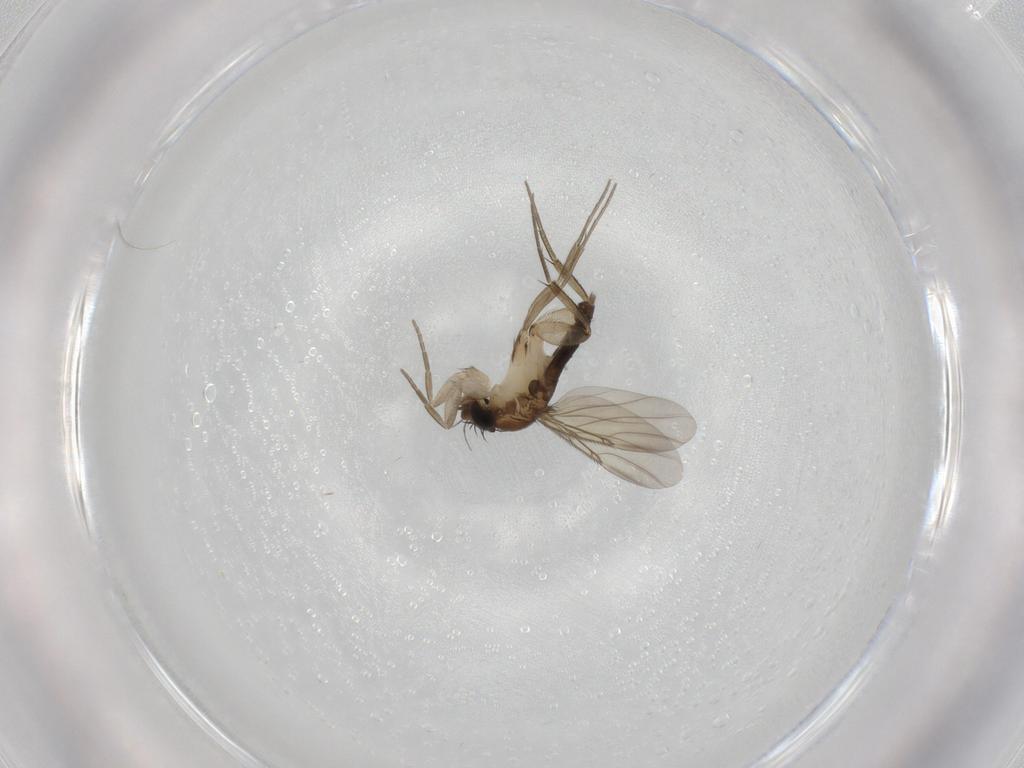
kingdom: Animalia
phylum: Arthropoda
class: Insecta
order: Diptera
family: Phoridae
